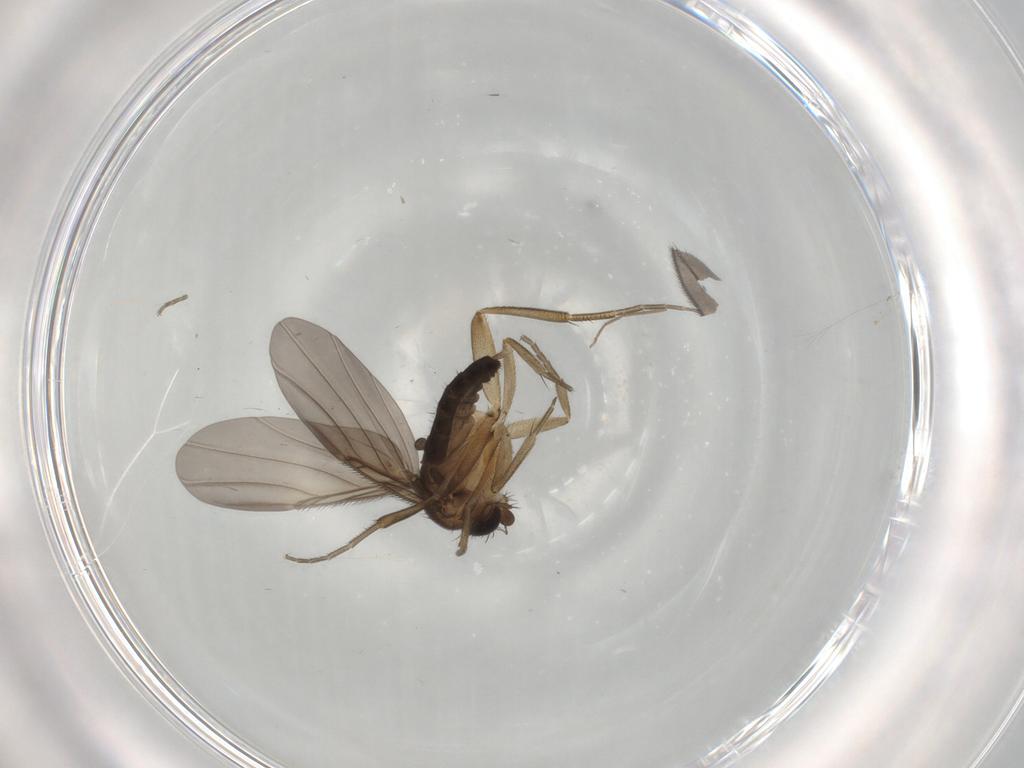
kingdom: Animalia
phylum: Arthropoda
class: Insecta
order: Diptera
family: Phoridae
